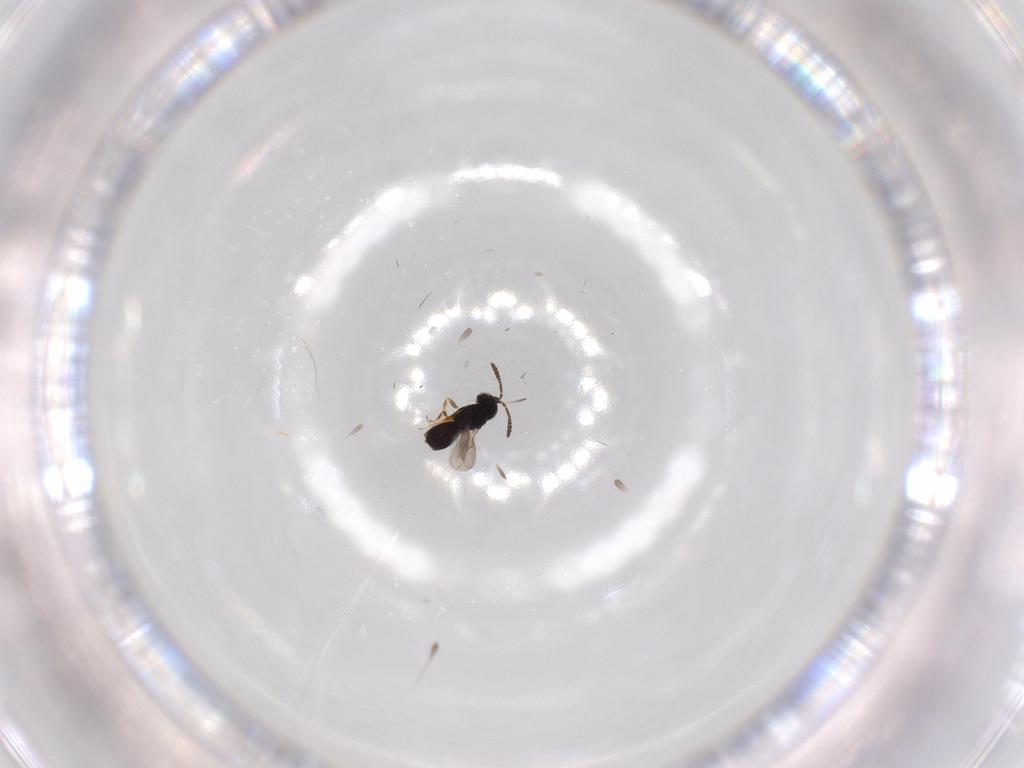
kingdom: Animalia
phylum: Arthropoda
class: Insecta
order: Hymenoptera
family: Scelionidae
